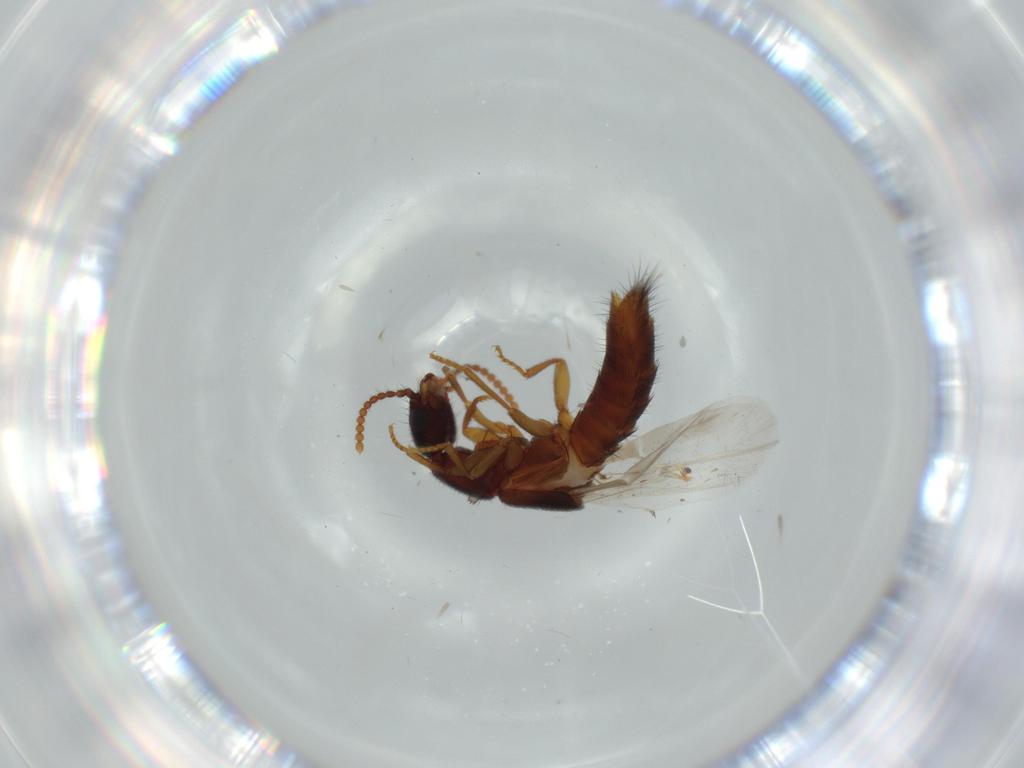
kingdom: Animalia
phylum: Arthropoda
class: Insecta
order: Coleoptera
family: Staphylinidae
